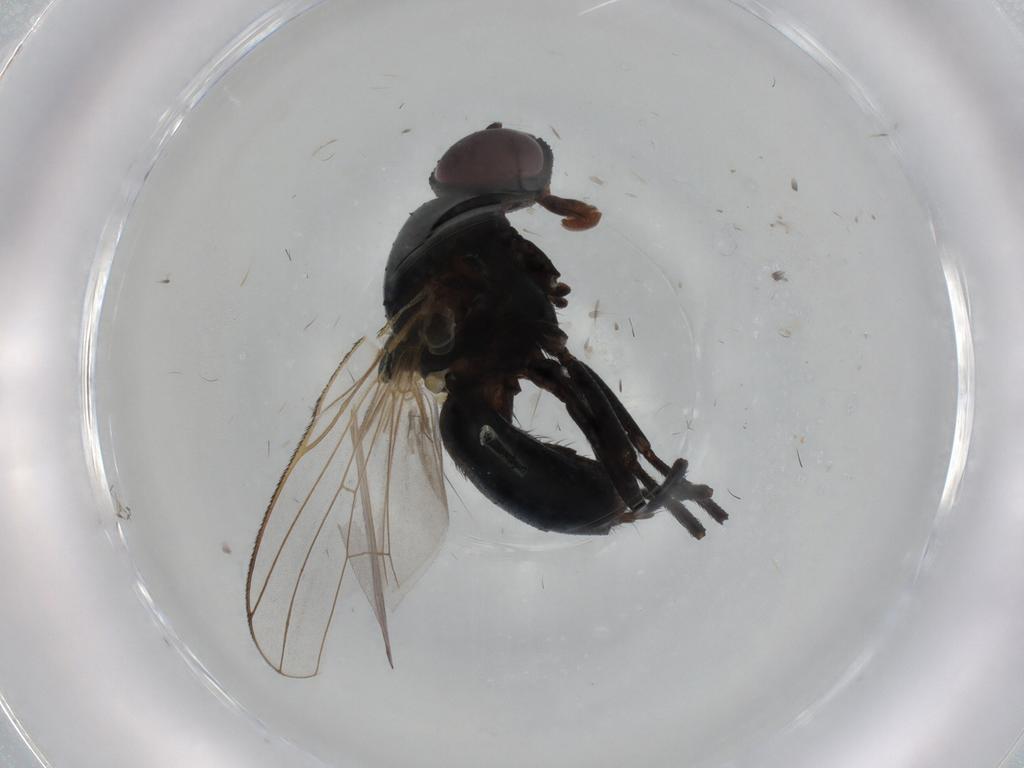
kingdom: Animalia
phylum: Arthropoda
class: Insecta
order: Diptera
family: Fannia
